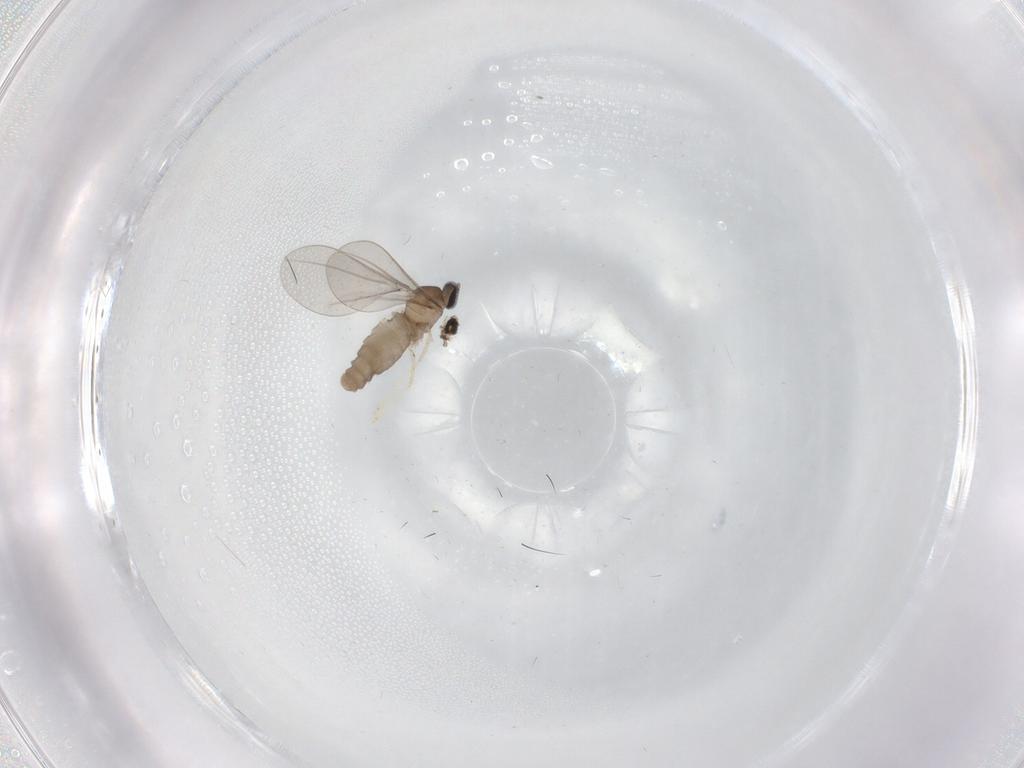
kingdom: Animalia
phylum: Arthropoda
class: Insecta
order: Diptera
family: Cecidomyiidae
